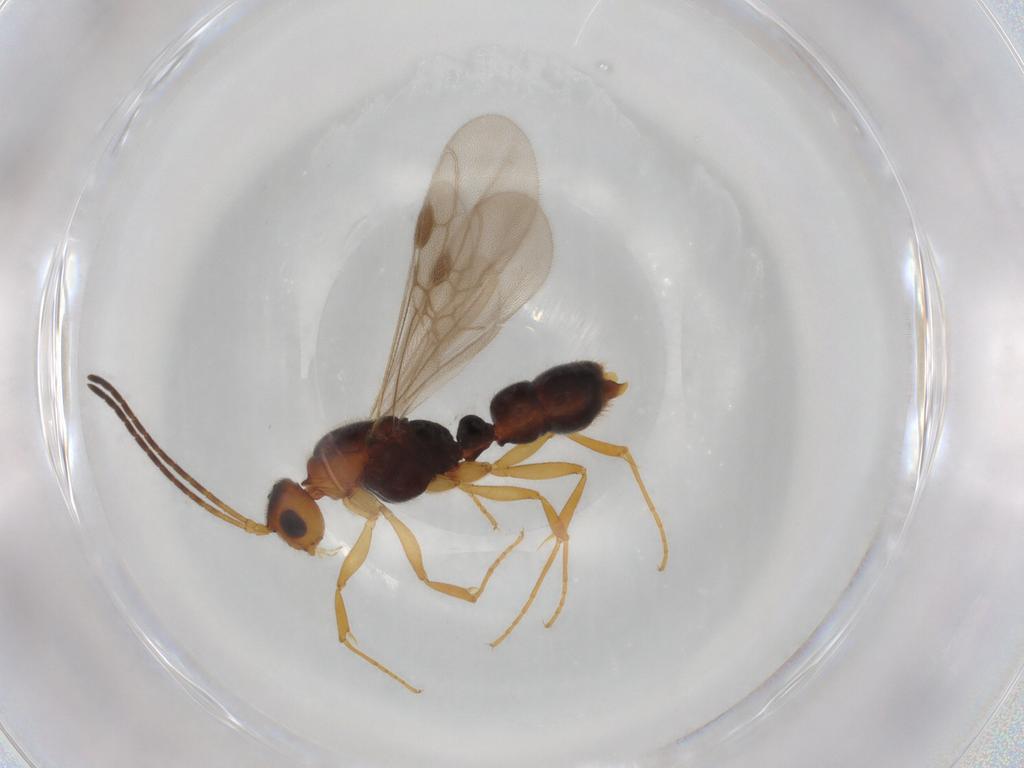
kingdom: Animalia
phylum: Arthropoda
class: Insecta
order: Hymenoptera
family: Formicidae
